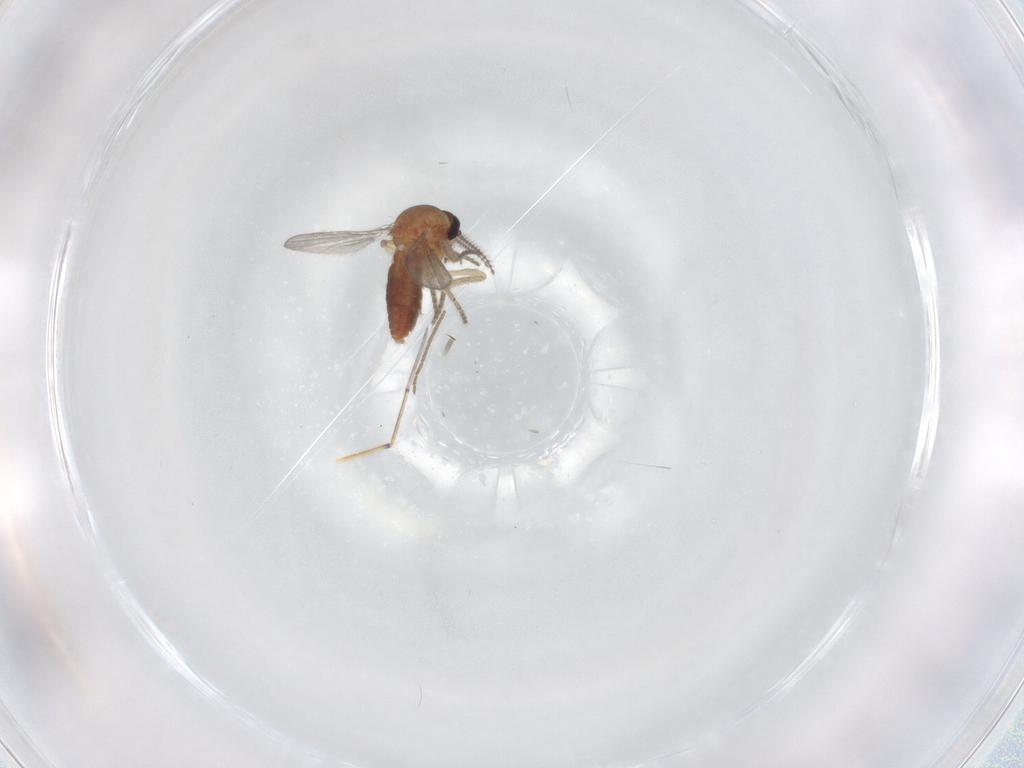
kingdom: Animalia
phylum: Arthropoda
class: Insecta
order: Diptera
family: Ceratopogonidae
